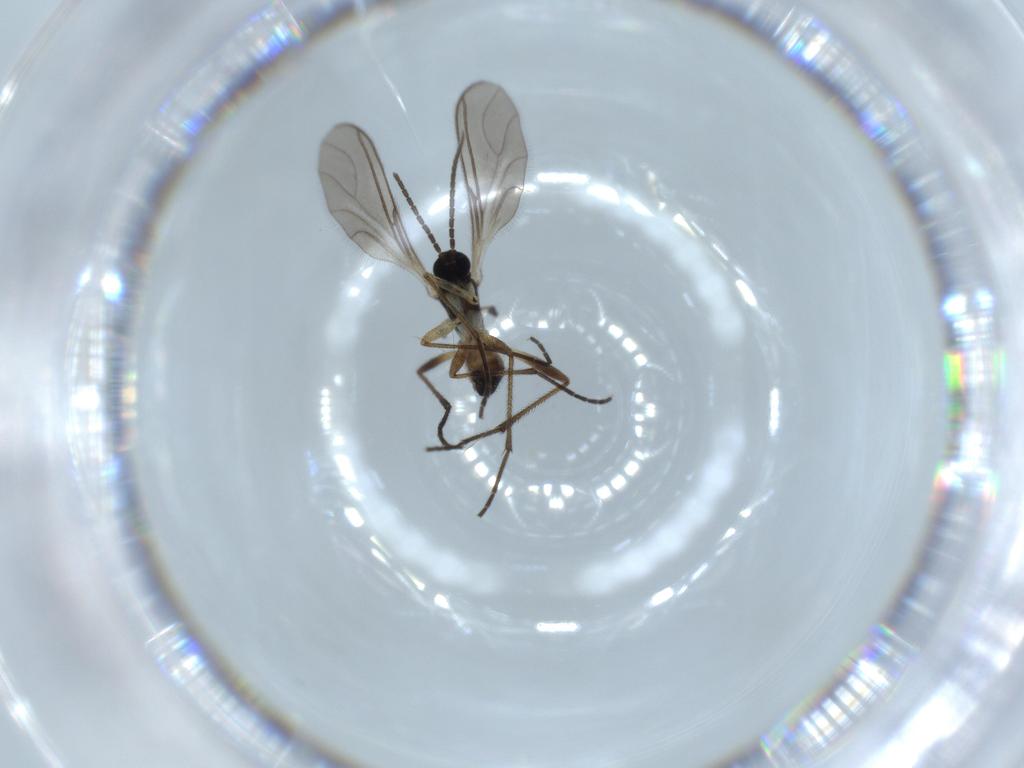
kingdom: Animalia
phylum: Arthropoda
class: Insecta
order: Diptera
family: Sciaridae
